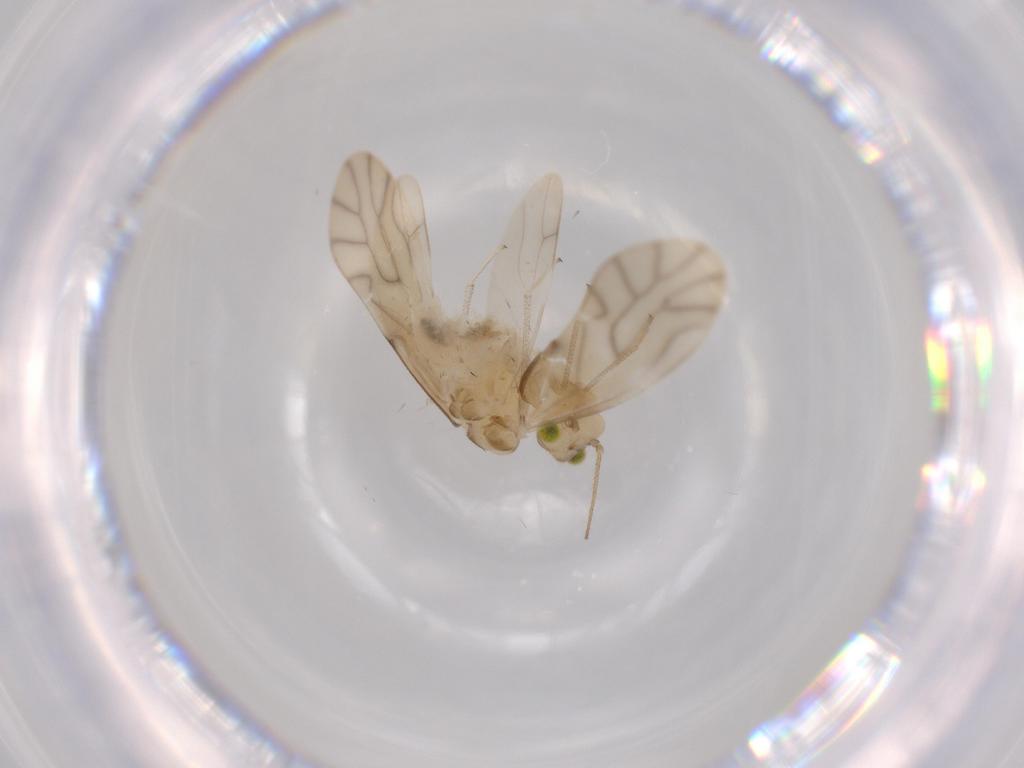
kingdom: Animalia
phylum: Arthropoda
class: Insecta
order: Psocodea
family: Caeciliusidae
